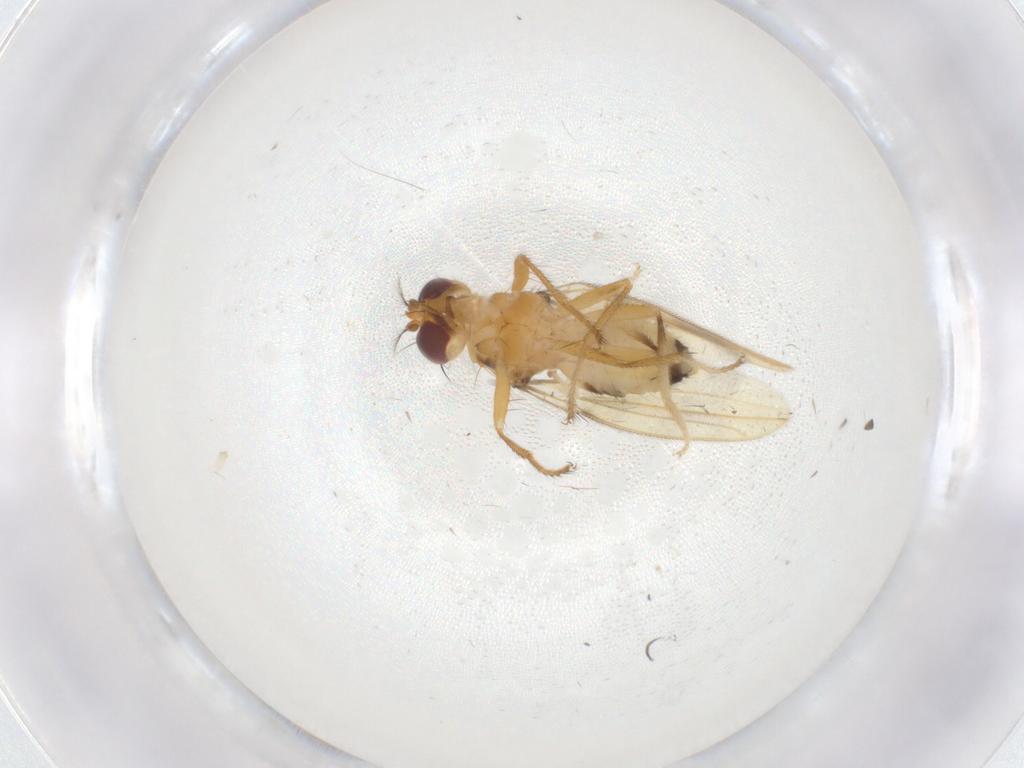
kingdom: Animalia
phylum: Arthropoda
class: Insecta
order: Diptera
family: Periscelididae
